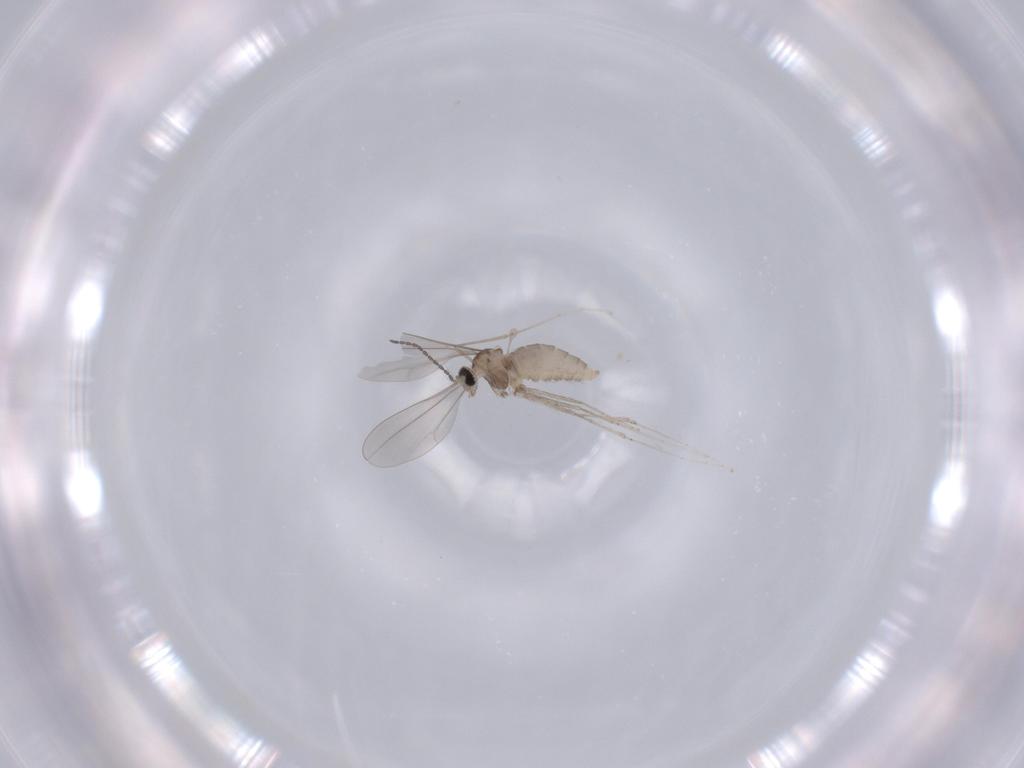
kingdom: Animalia
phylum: Arthropoda
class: Insecta
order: Diptera
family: Sciaridae
